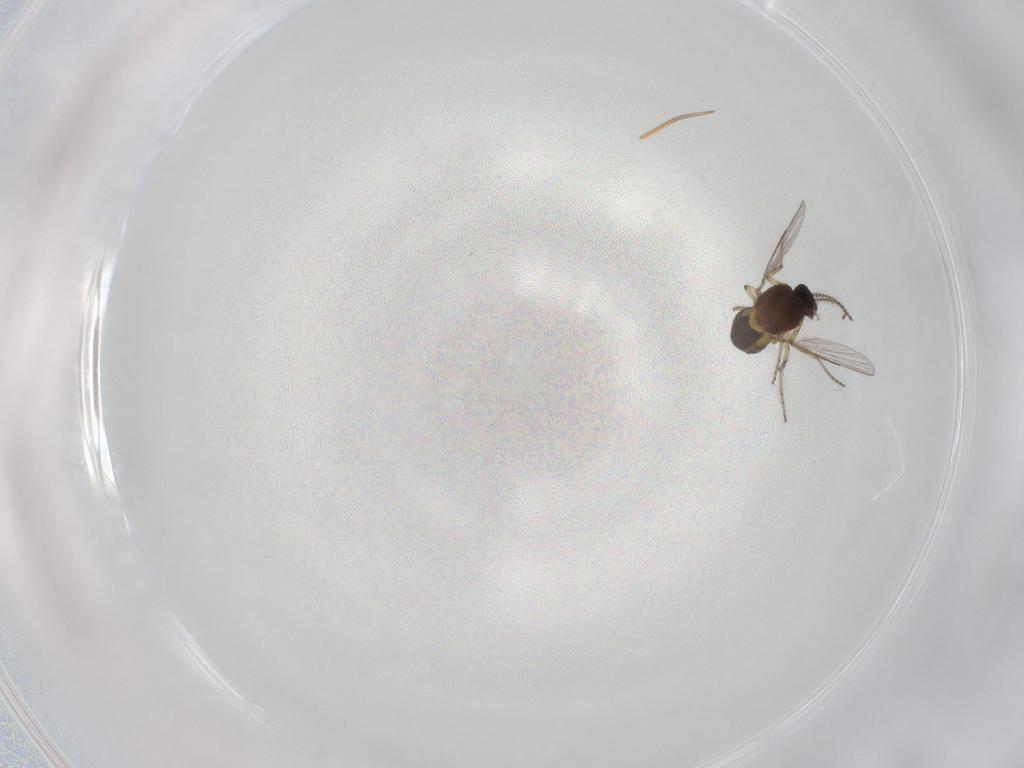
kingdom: Animalia
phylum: Arthropoda
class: Insecta
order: Diptera
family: Ceratopogonidae
